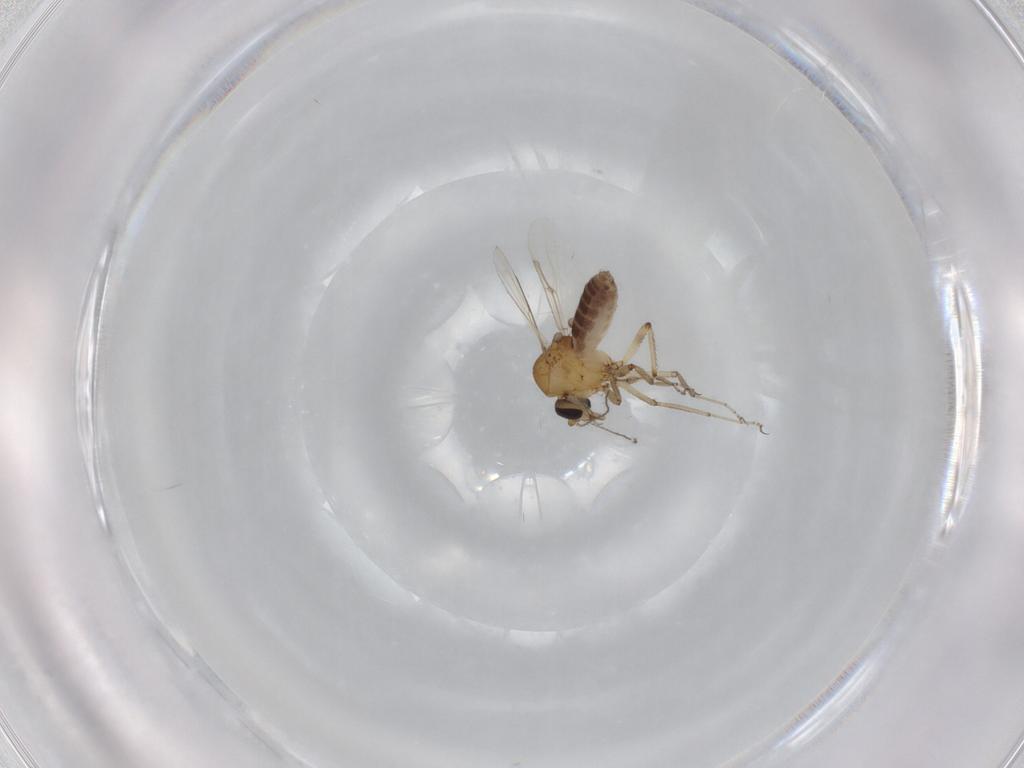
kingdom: Animalia
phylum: Arthropoda
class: Insecta
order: Diptera
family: Ceratopogonidae
